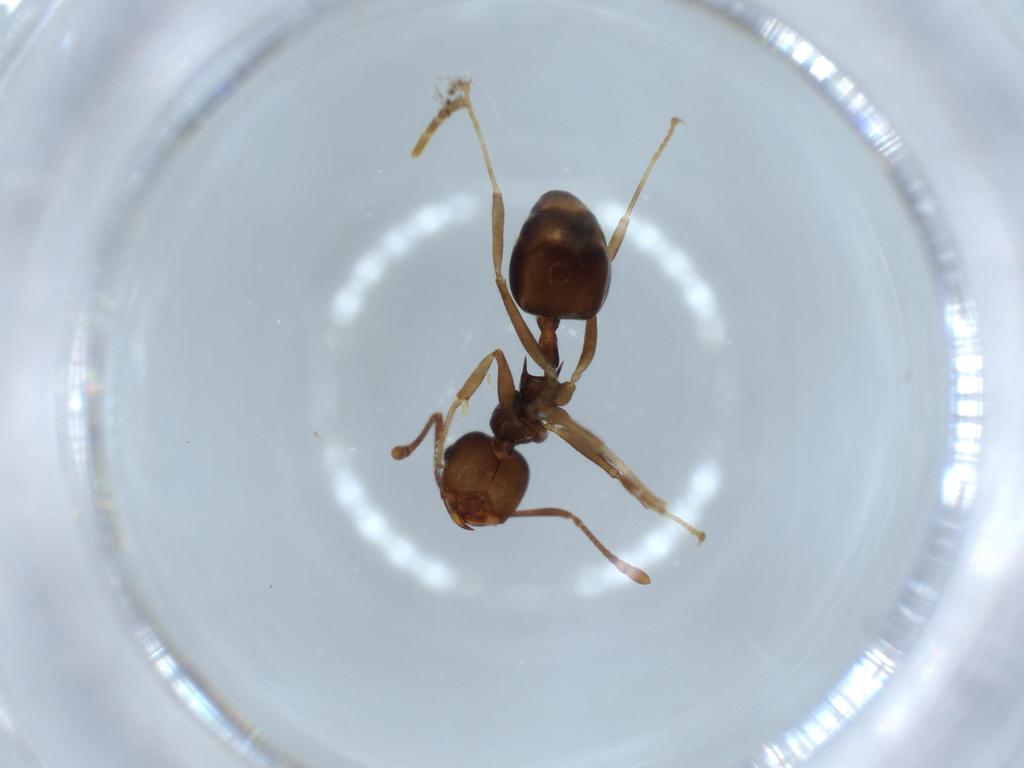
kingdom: Animalia
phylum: Arthropoda
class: Insecta
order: Hymenoptera
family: Formicidae
